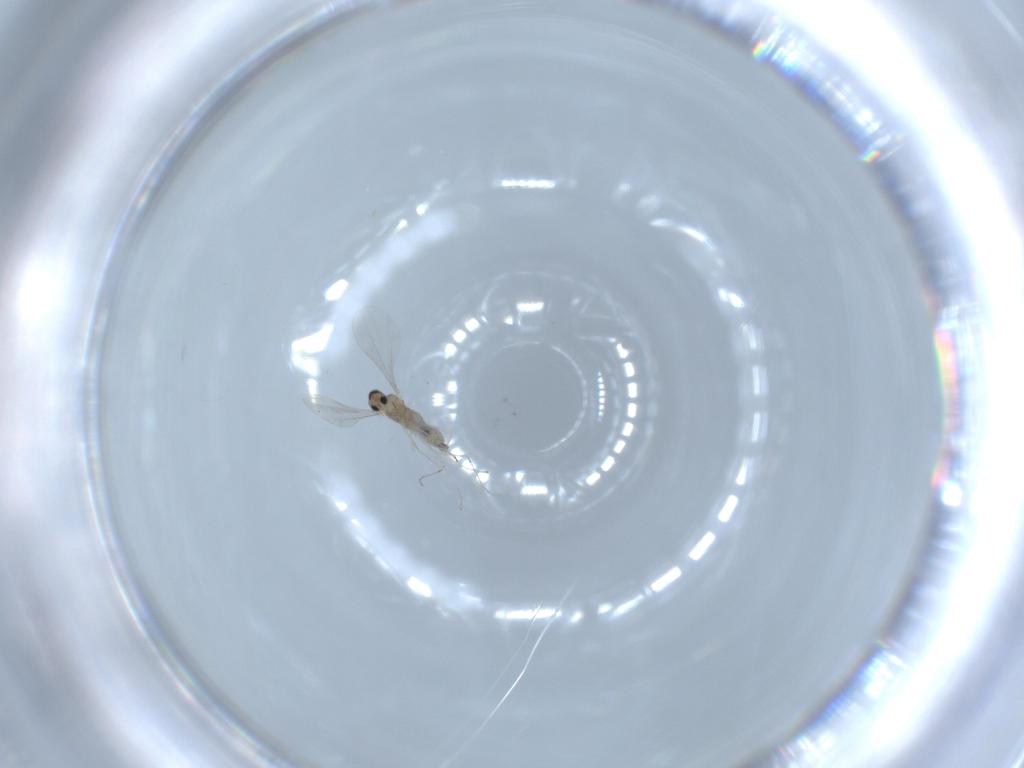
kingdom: Animalia
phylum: Arthropoda
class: Insecta
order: Diptera
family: Cecidomyiidae
